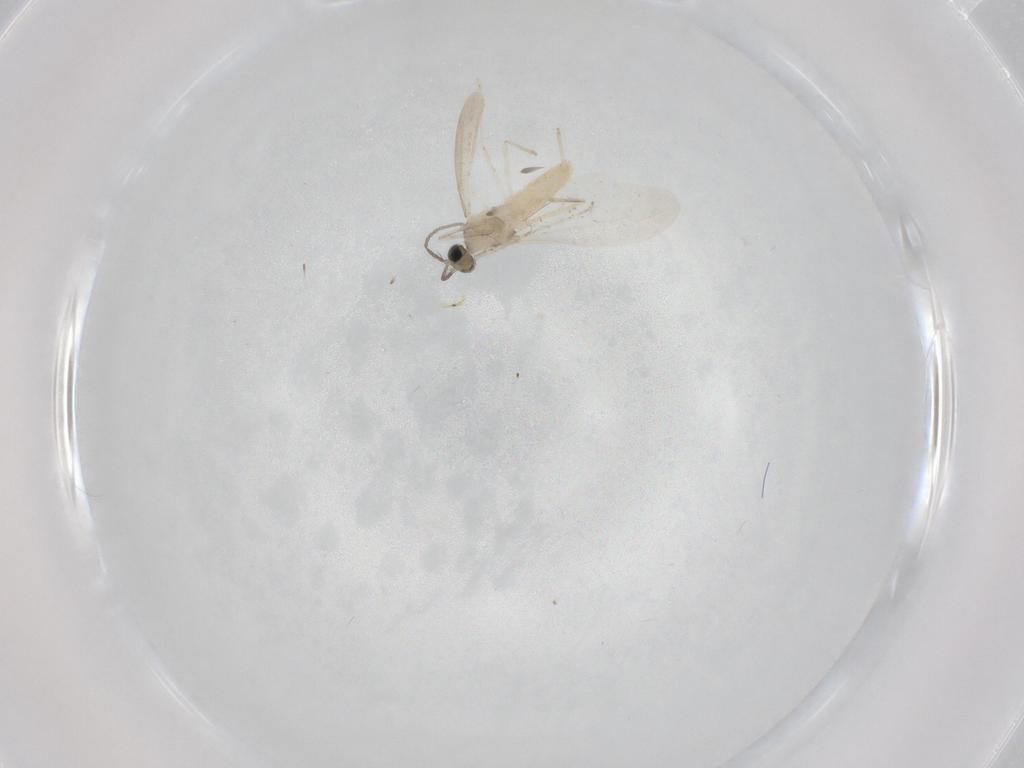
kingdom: Animalia
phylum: Arthropoda
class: Insecta
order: Diptera
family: Cecidomyiidae
